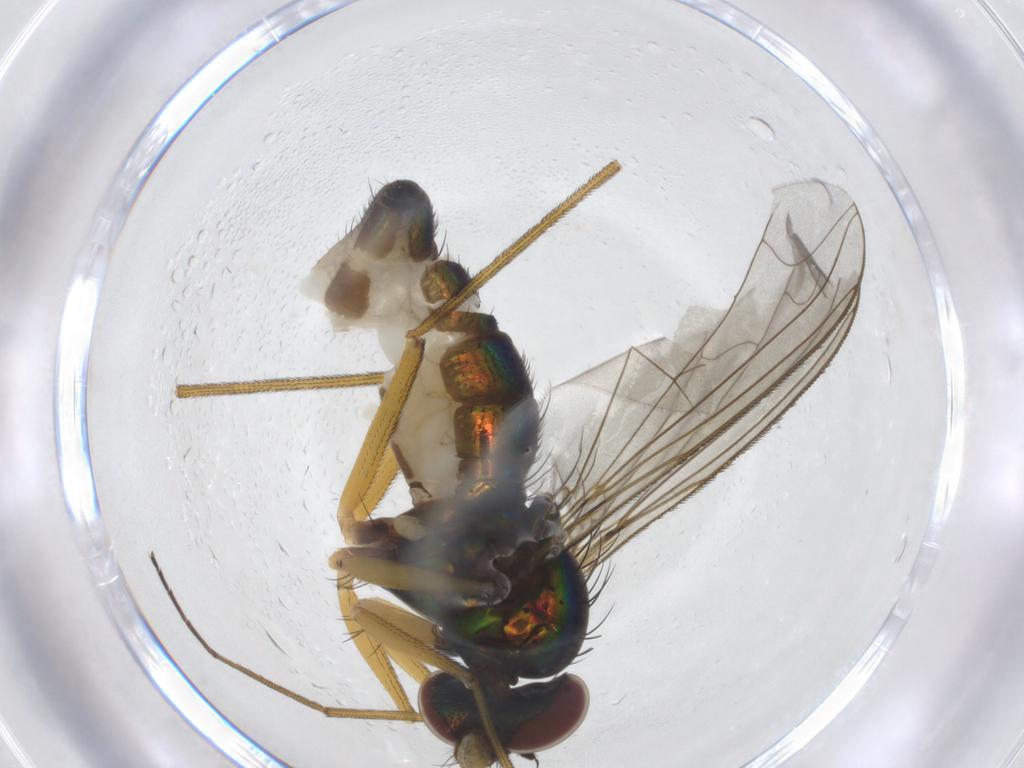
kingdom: Animalia
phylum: Arthropoda
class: Insecta
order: Diptera
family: Dolichopodidae
